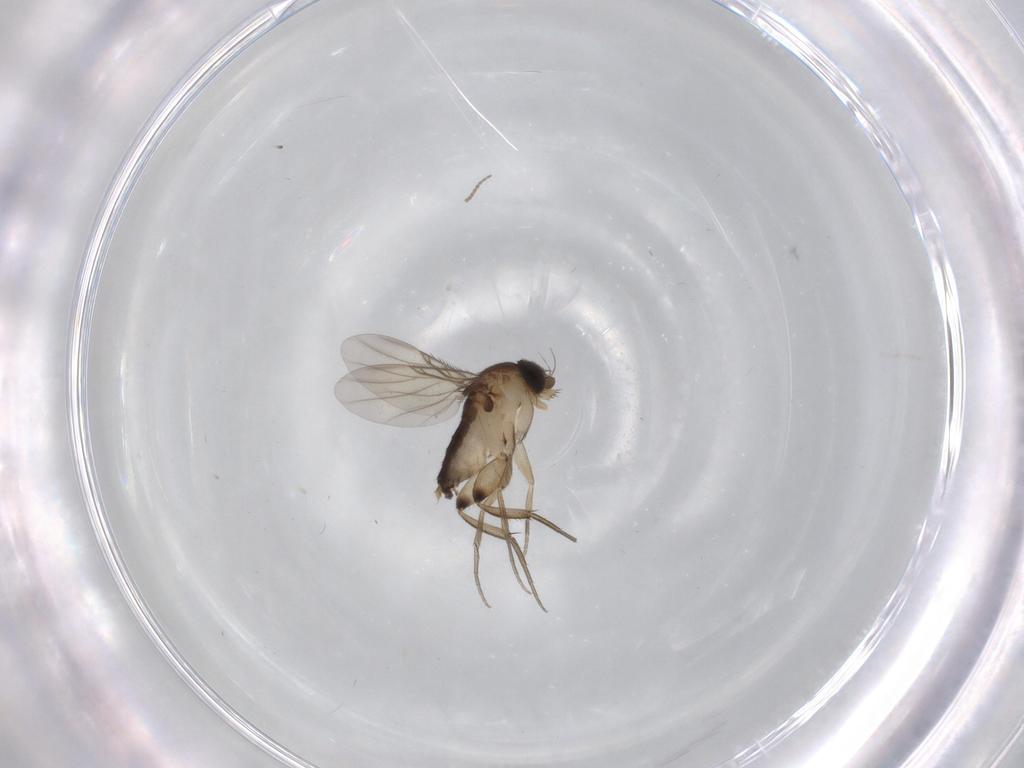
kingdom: Animalia
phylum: Arthropoda
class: Insecta
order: Diptera
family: Phoridae
